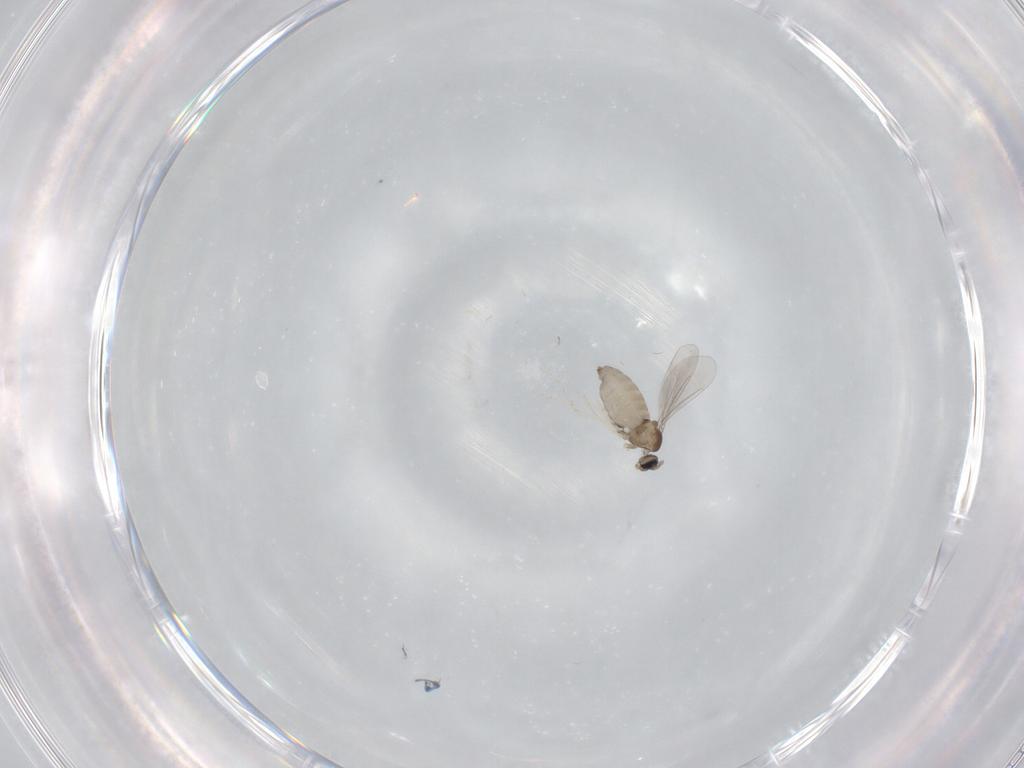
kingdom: Animalia
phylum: Arthropoda
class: Insecta
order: Diptera
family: Cecidomyiidae
